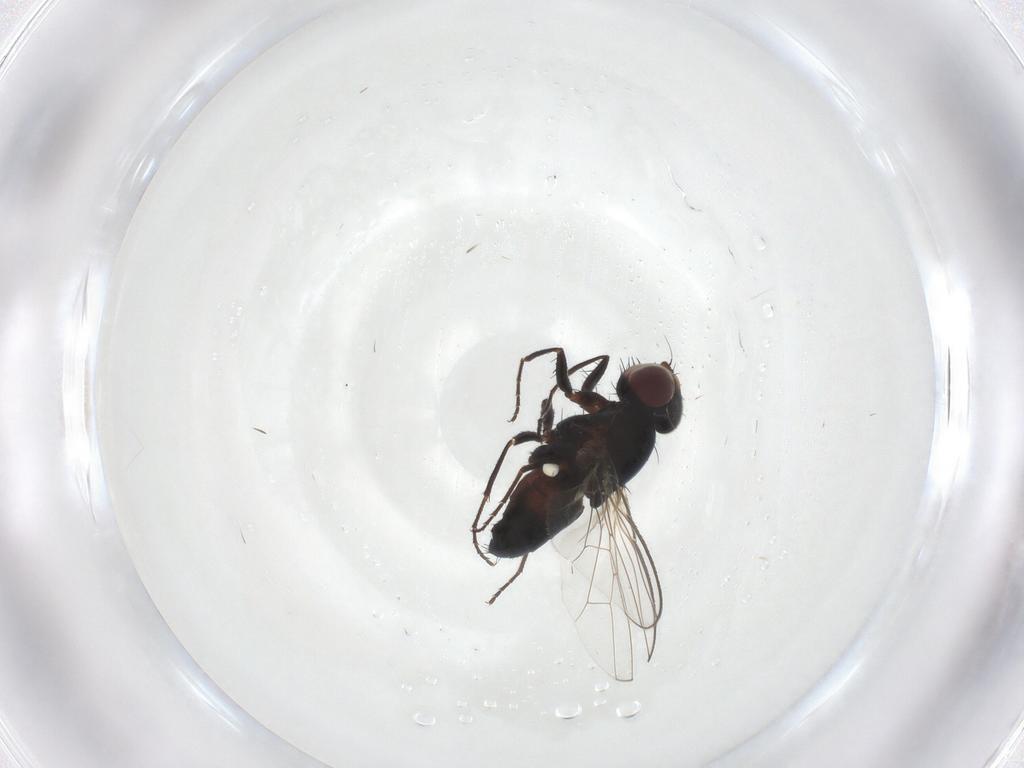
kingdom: Animalia
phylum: Arthropoda
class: Insecta
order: Diptera
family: Carnidae
